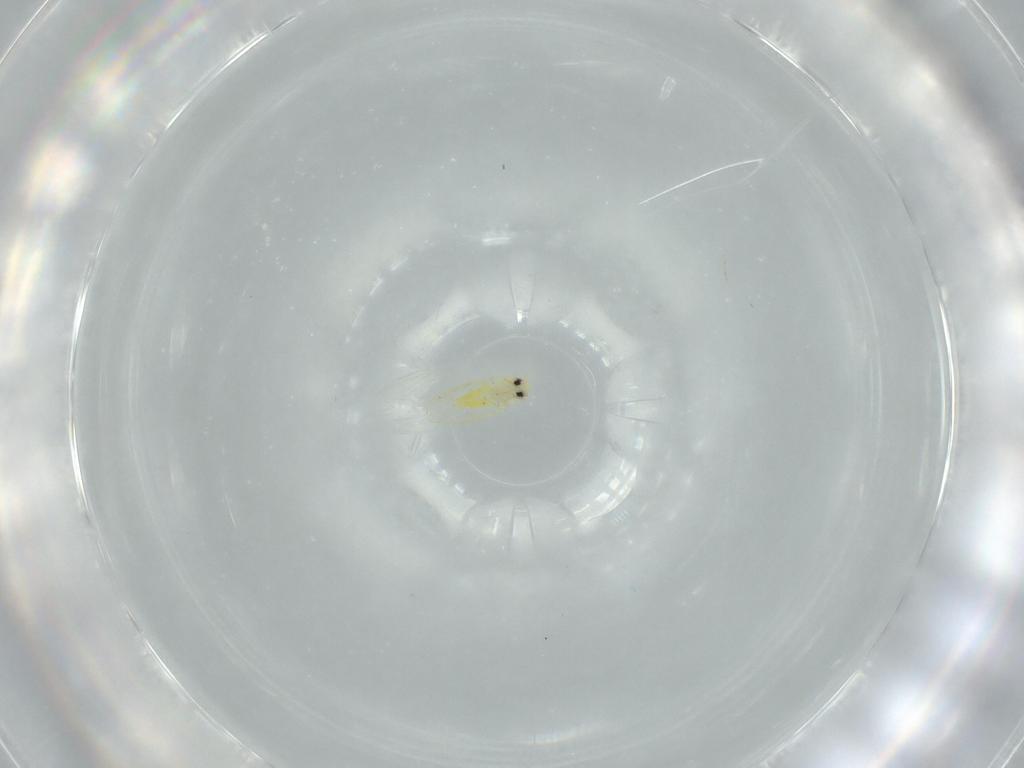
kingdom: Animalia
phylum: Arthropoda
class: Insecta
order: Hemiptera
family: Aleyrodidae
